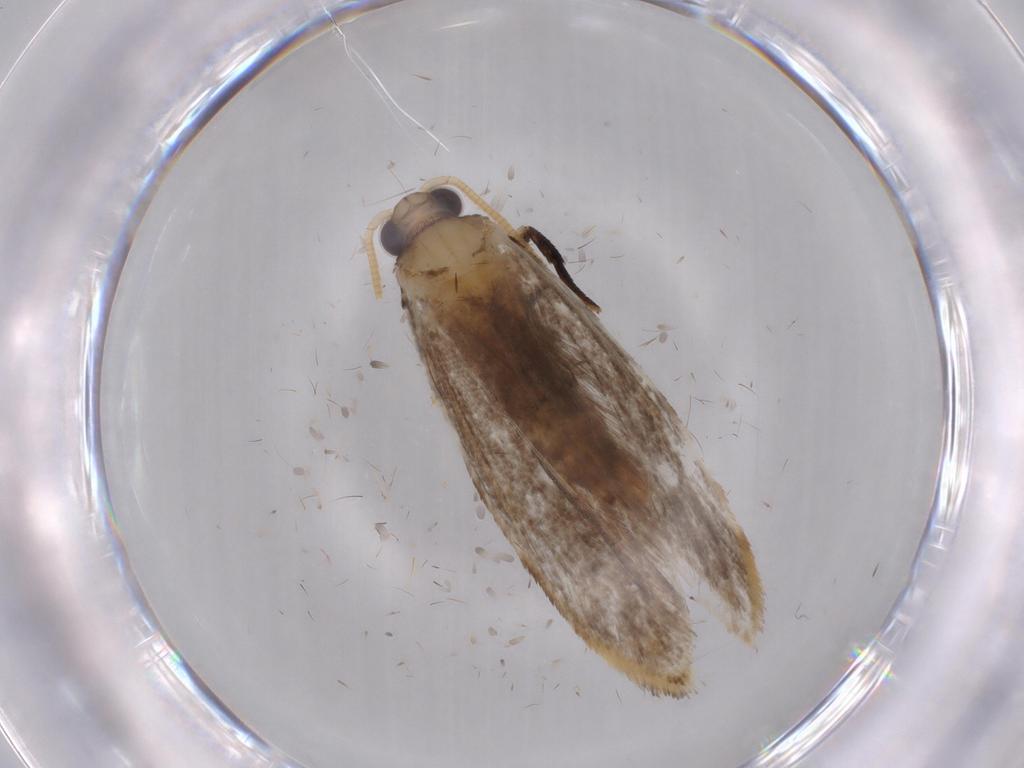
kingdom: Animalia
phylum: Arthropoda
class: Insecta
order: Lepidoptera
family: Tineidae
